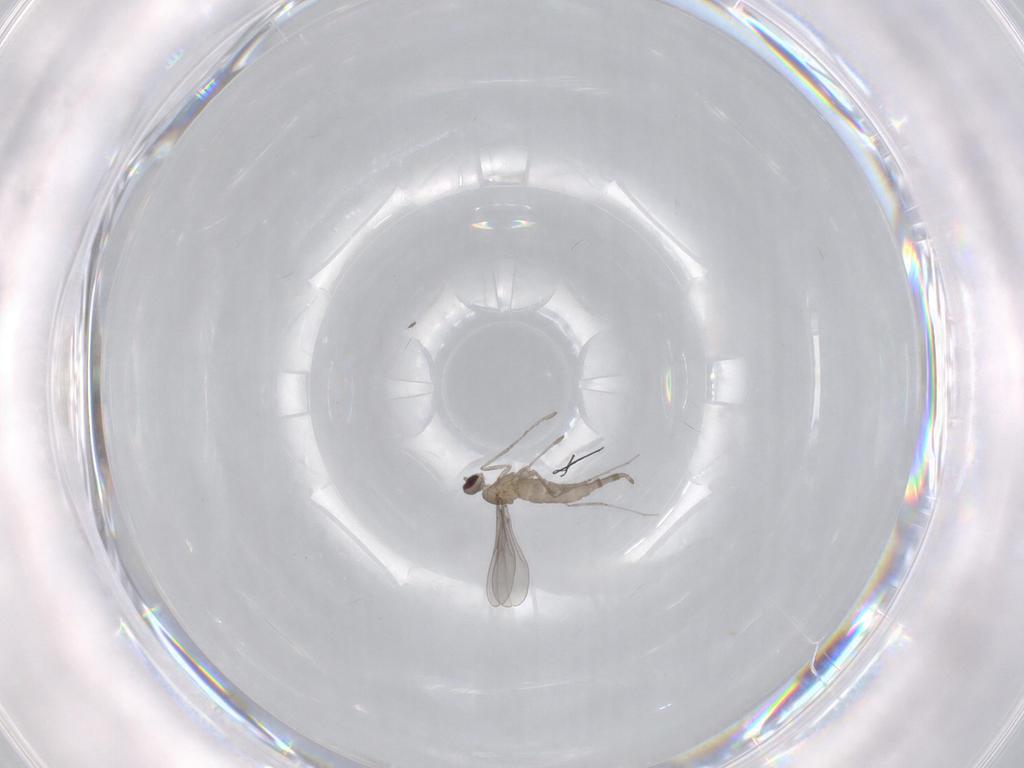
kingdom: Animalia
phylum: Arthropoda
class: Insecta
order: Diptera
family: Cecidomyiidae
